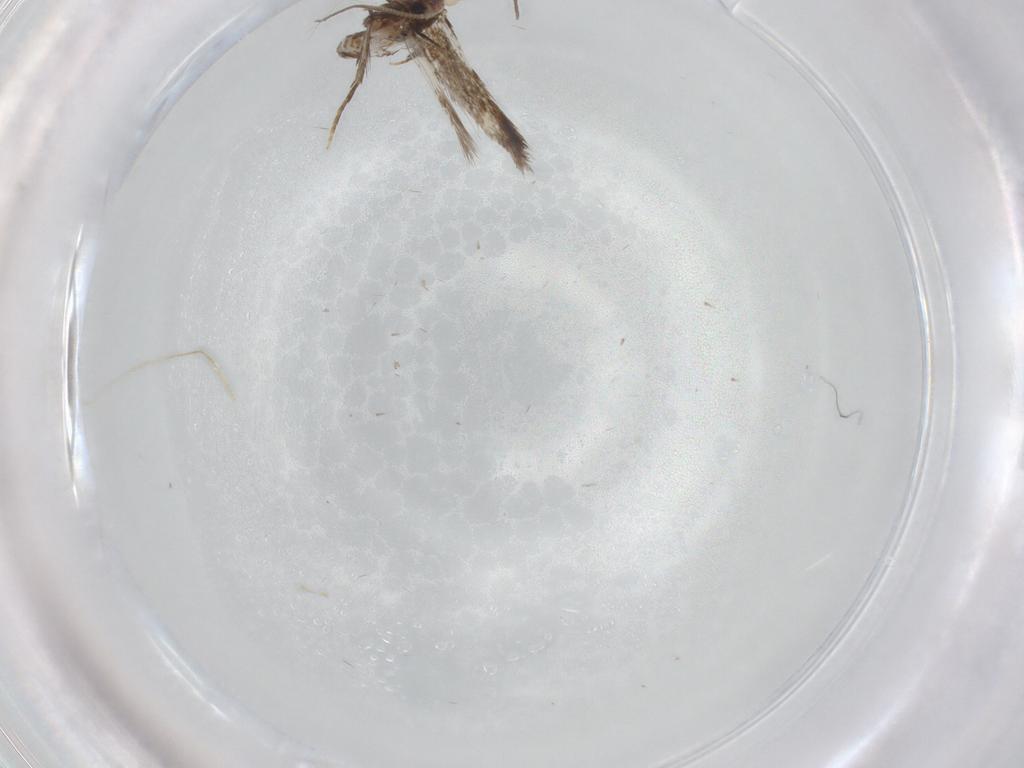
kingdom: Animalia
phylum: Arthropoda
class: Insecta
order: Lepidoptera
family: Nepticulidae
